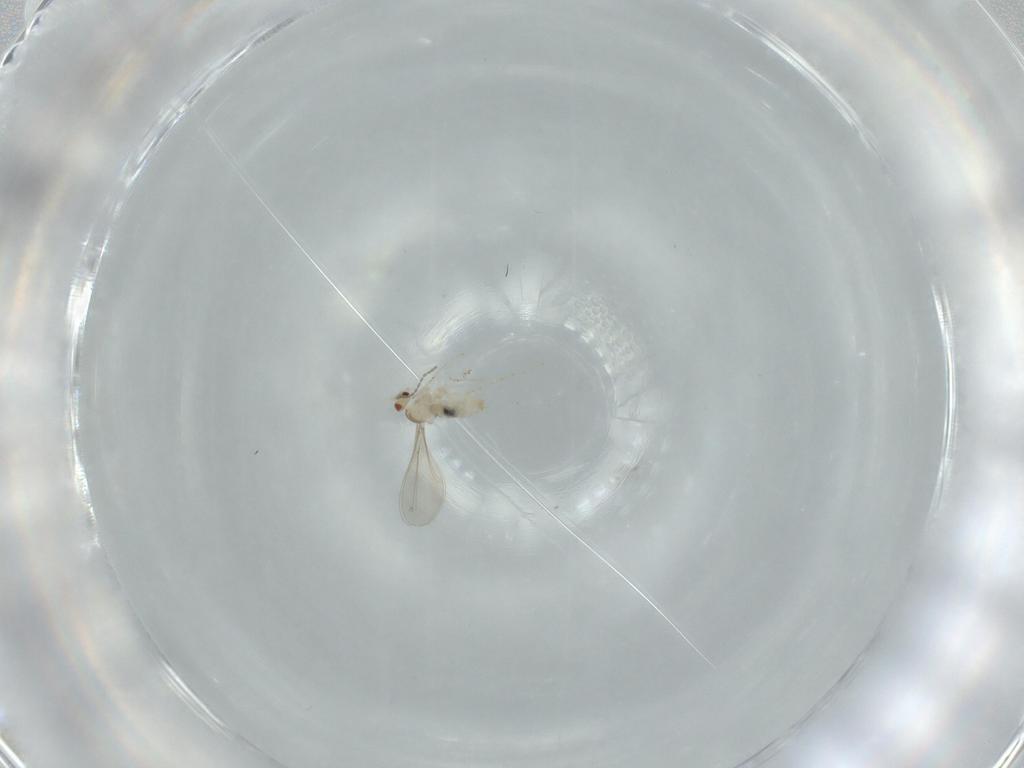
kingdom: Animalia
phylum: Arthropoda
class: Insecta
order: Diptera
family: Cecidomyiidae
